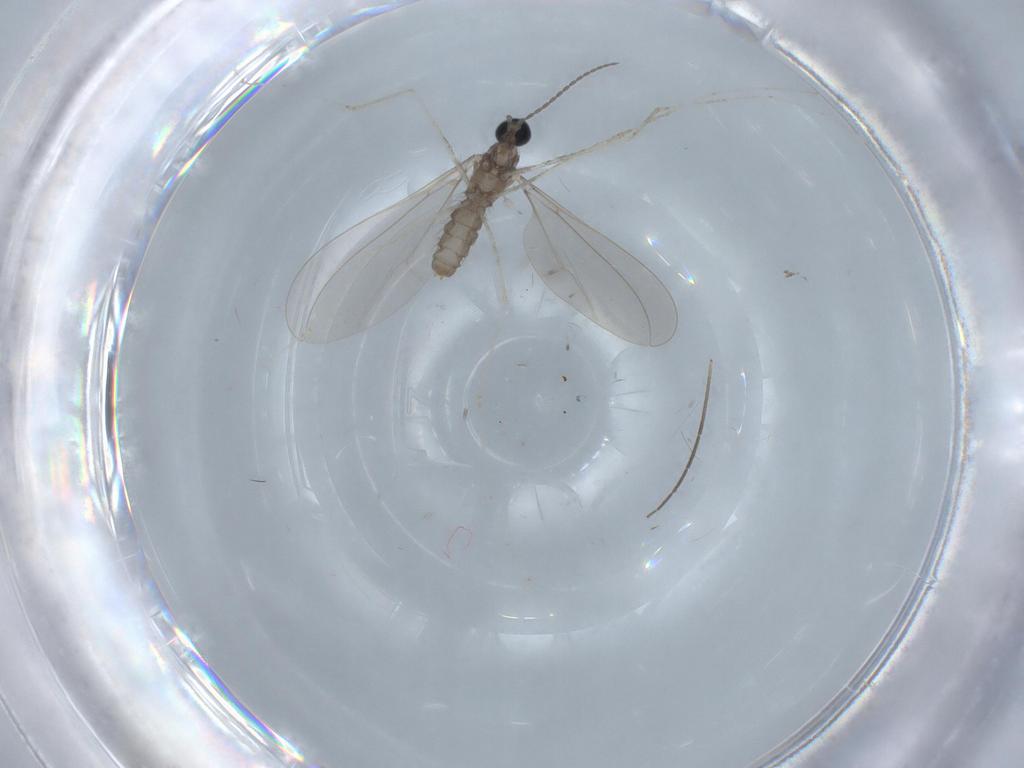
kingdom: Animalia
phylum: Arthropoda
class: Insecta
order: Diptera
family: Cecidomyiidae
